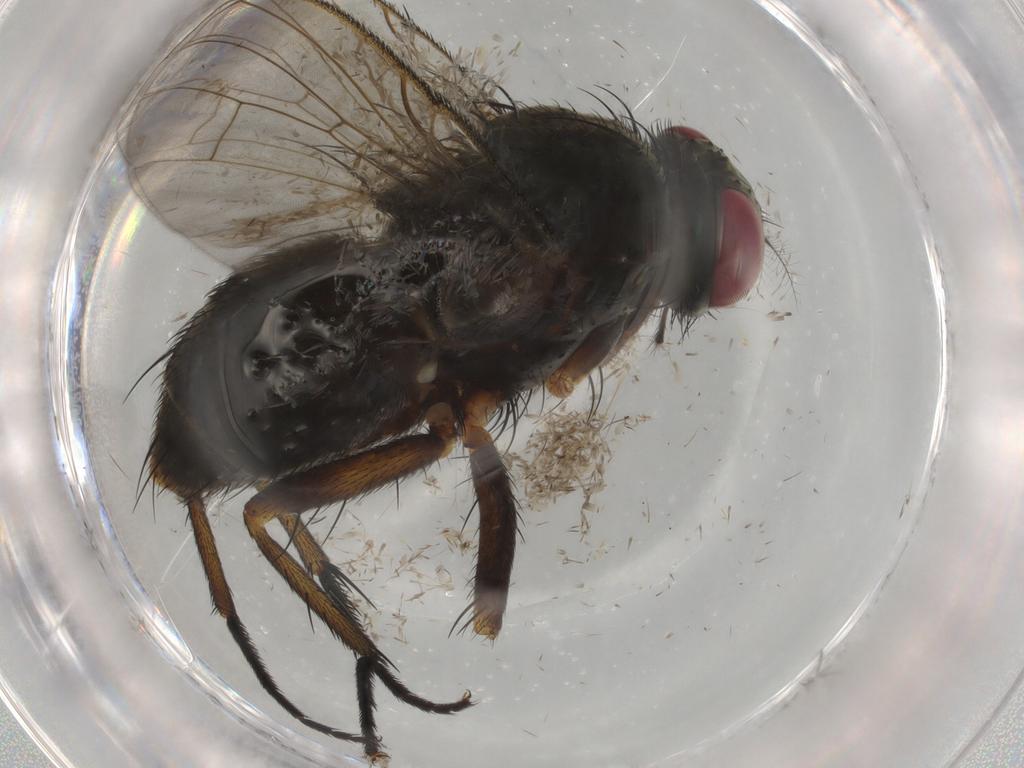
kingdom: Animalia
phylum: Arthropoda
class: Insecta
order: Diptera
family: Muscidae
